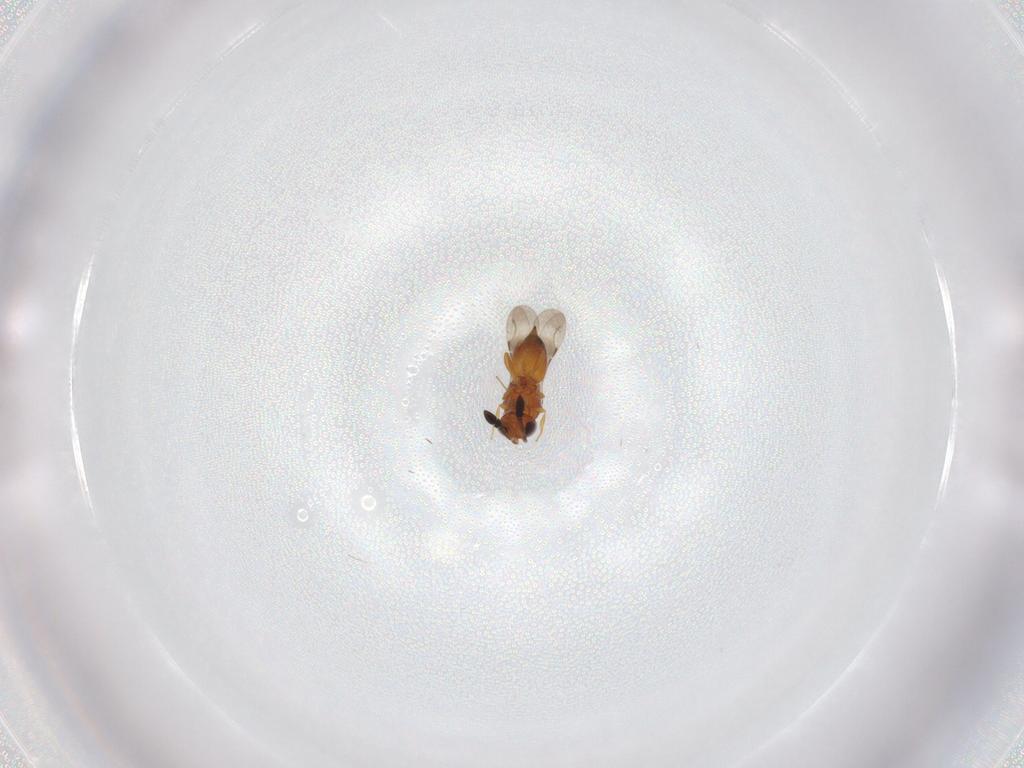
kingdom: Animalia
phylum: Arthropoda
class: Insecta
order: Hymenoptera
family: Ceraphronidae
